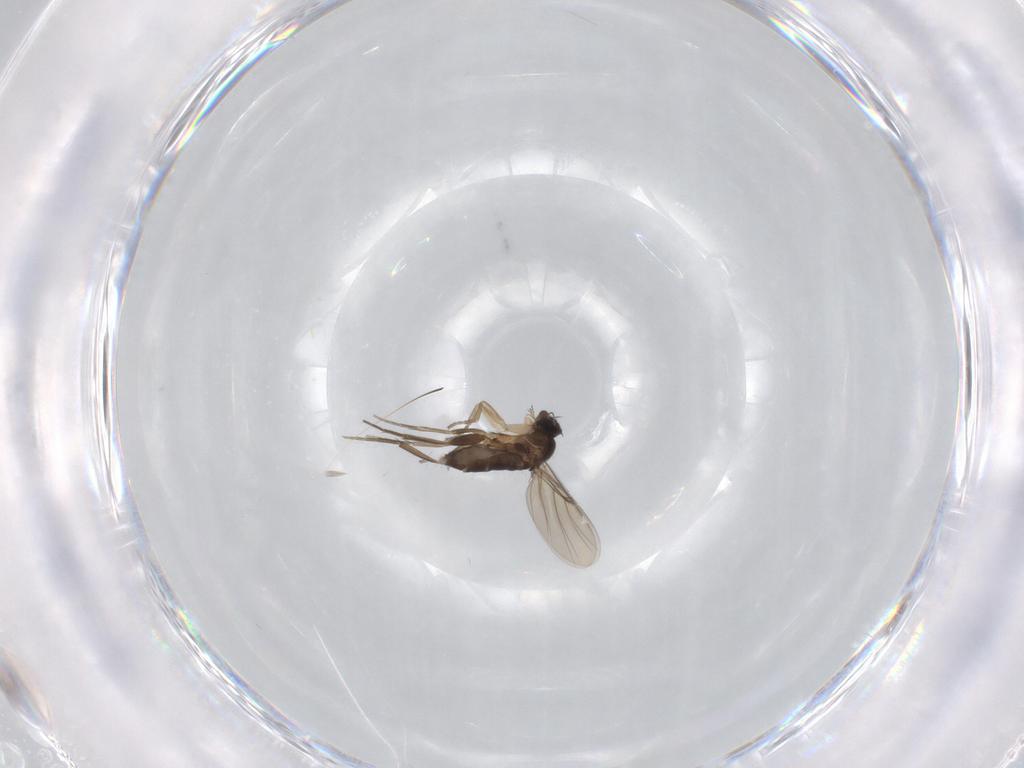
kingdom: Animalia
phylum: Arthropoda
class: Insecta
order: Diptera
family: Phoridae
